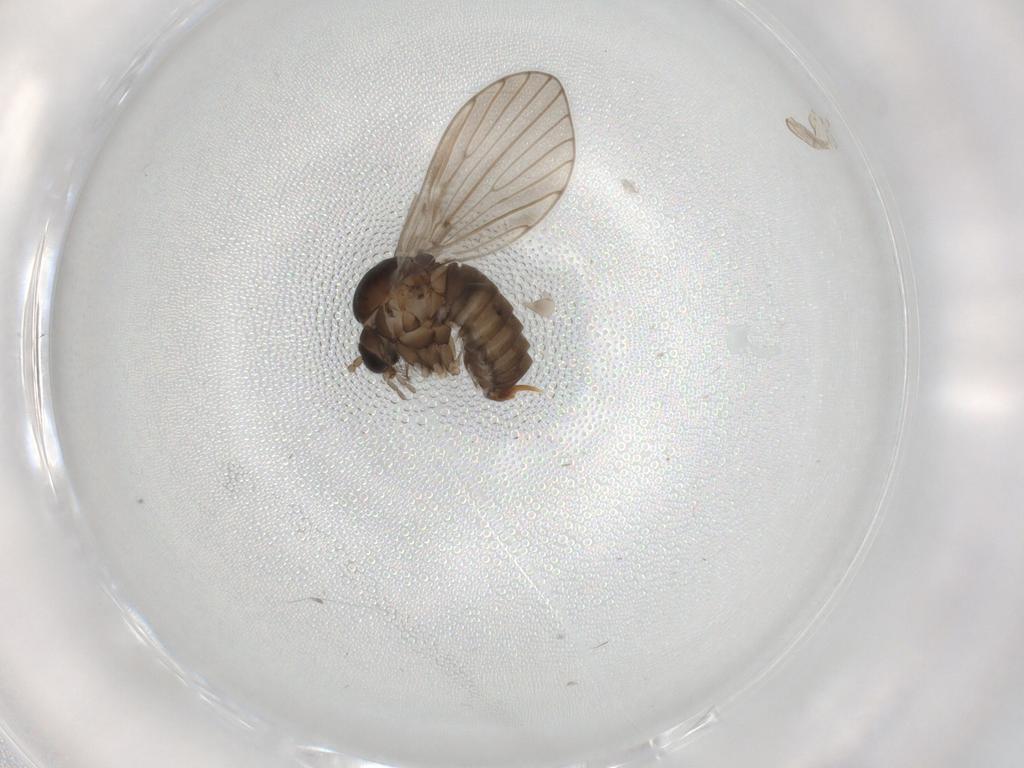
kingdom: Animalia
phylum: Arthropoda
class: Insecta
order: Diptera
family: Psychodidae
